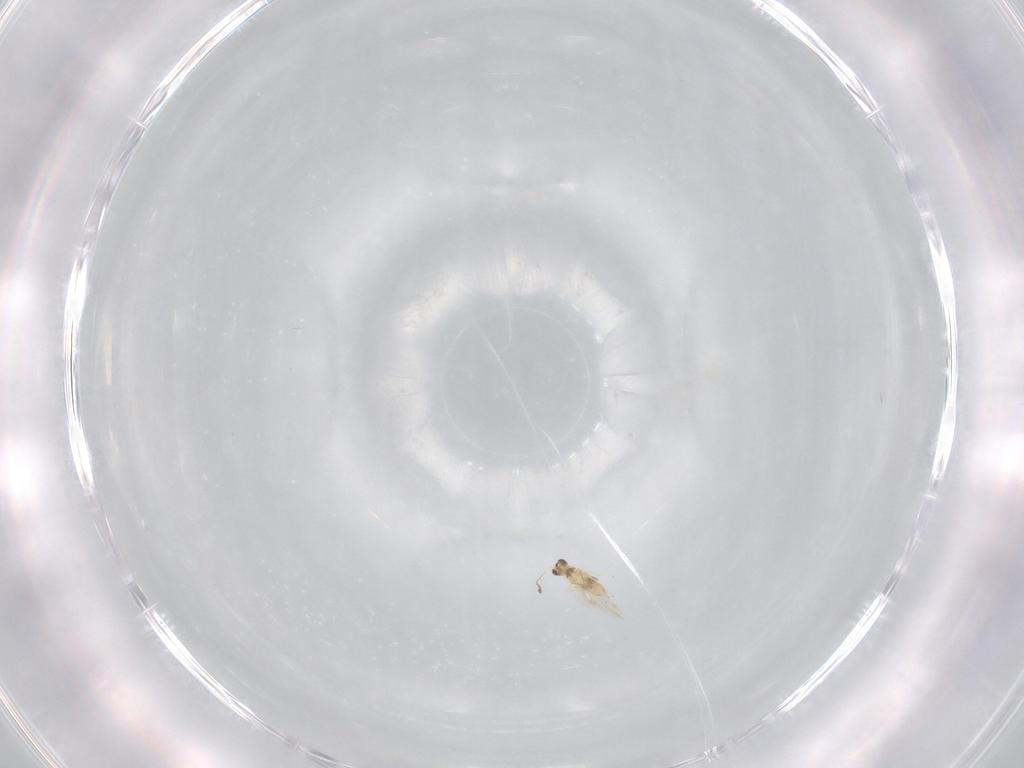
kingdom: Animalia
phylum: Arthropoda
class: Insecta
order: Hymenoptera
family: Mymaridae
